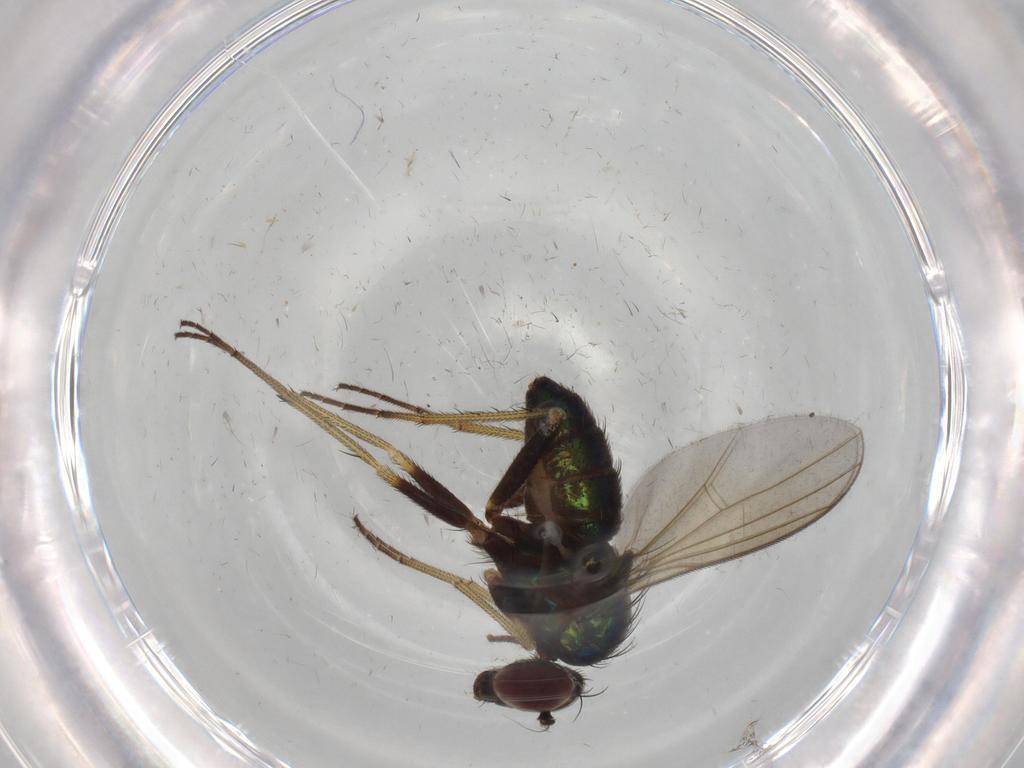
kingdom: Animalia
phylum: Arthropoda
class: Insecta
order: Diptera
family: Dolichopodidae
